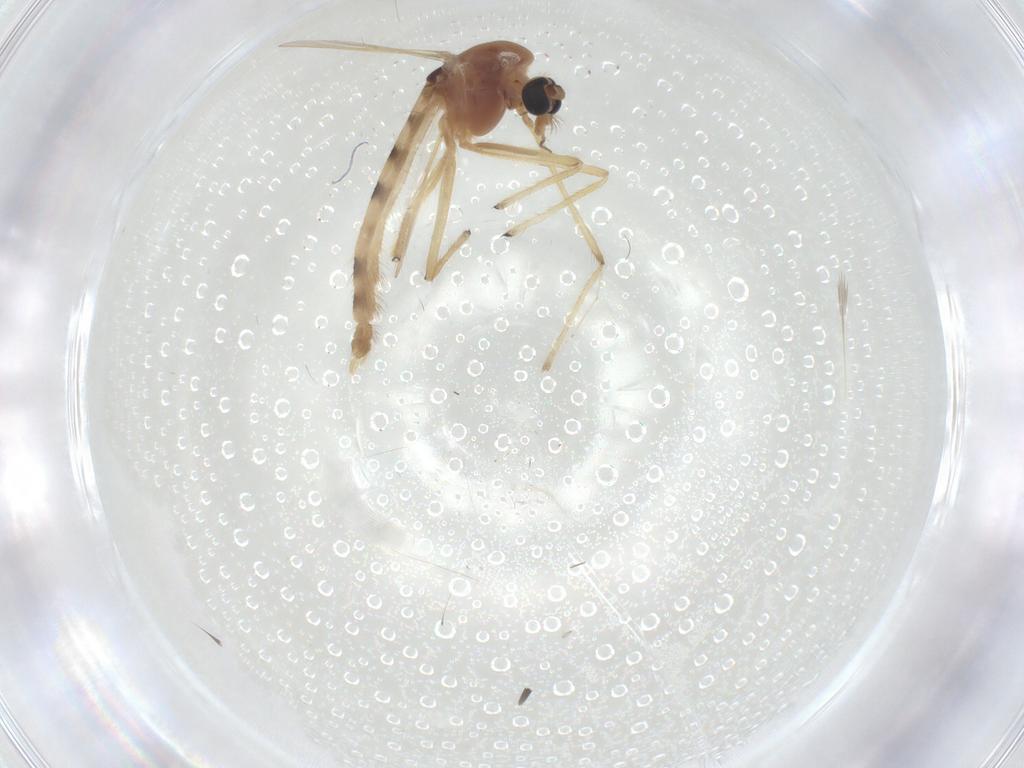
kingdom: Animalia
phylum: Arthropoda
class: Insecta
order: Diptera
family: Chironomidae
